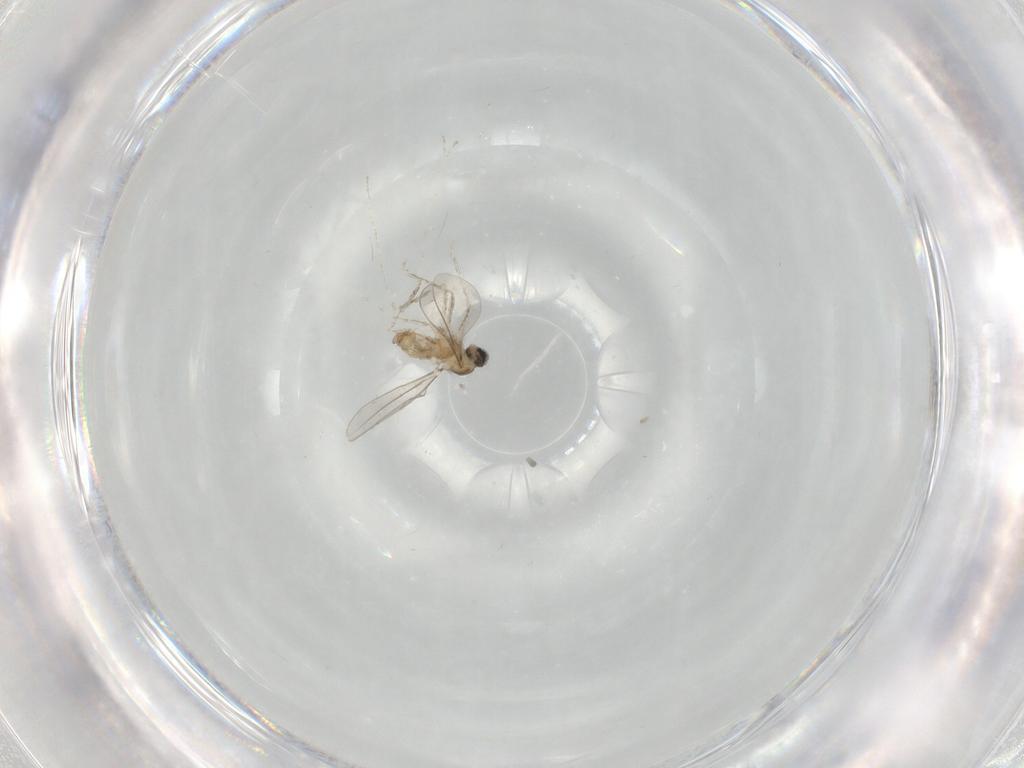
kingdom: Animalia
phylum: Arthropoda
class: Insecta
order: Diptera
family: Cecidomyiidae
